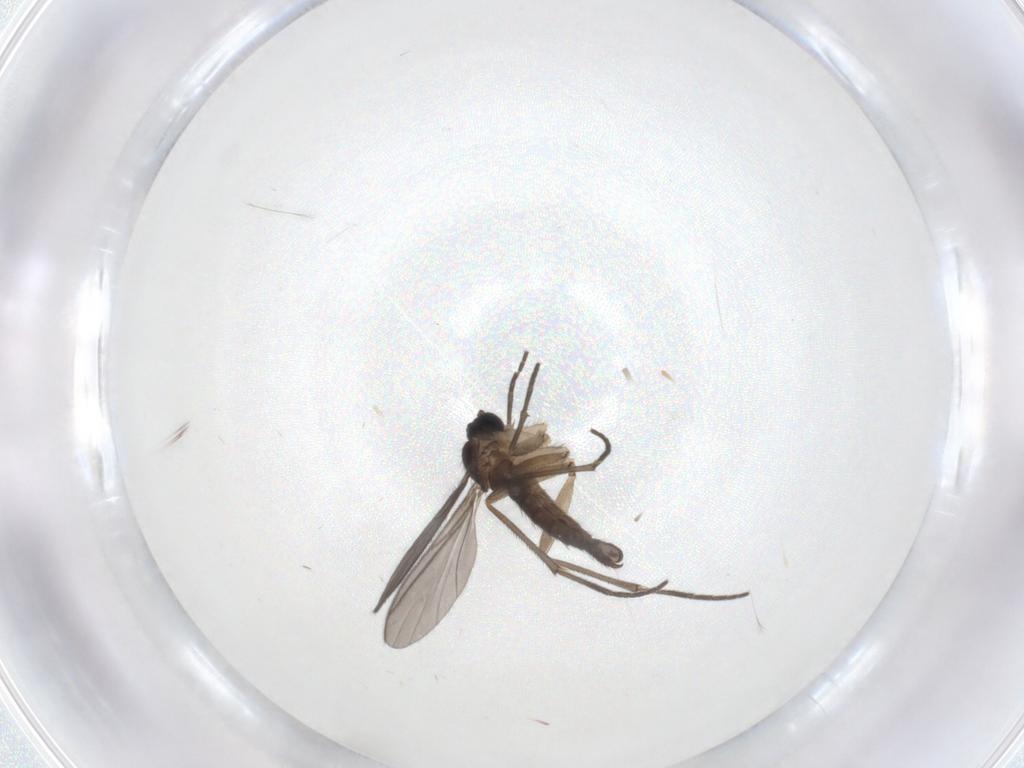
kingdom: Animalia
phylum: Arthropoda
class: Insecta
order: Diptera
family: Sciaridae
